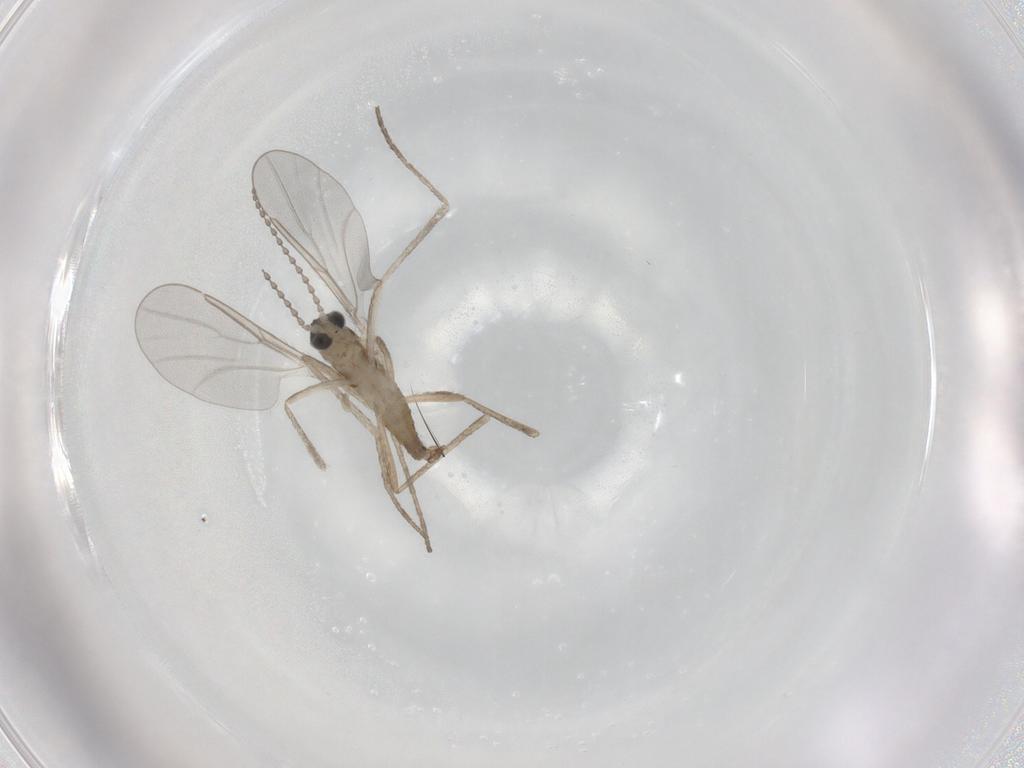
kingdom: Animalia
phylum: Arthropoda
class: Insecta
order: Diptera
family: Cecidomyiidae
